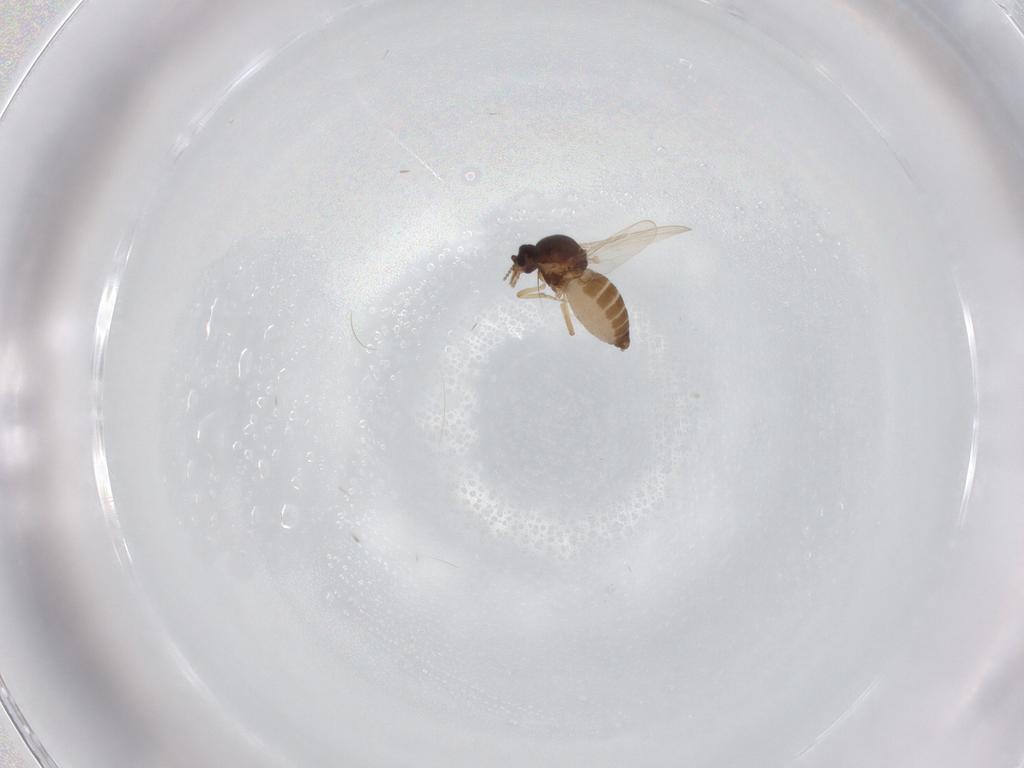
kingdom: Animalia
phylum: Arthropoda
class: Insecta
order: Diptera
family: Ceratopogonidae
